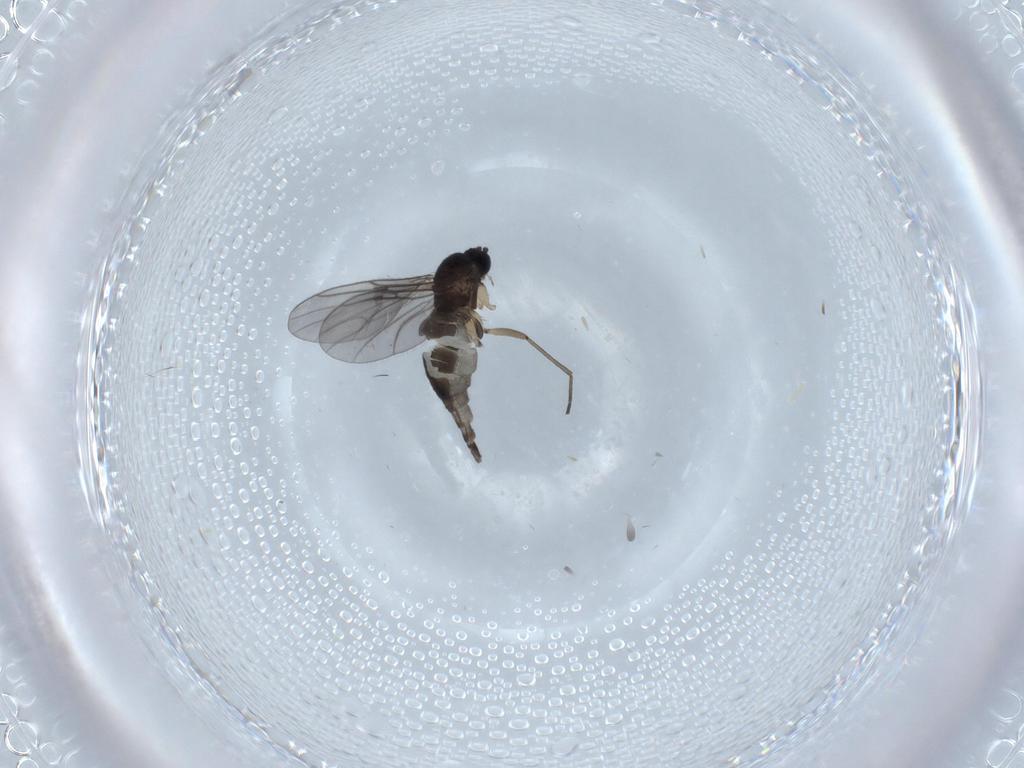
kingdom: Animalia
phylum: Arthropoda
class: Insecta
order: Diptera
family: Sciaridae
